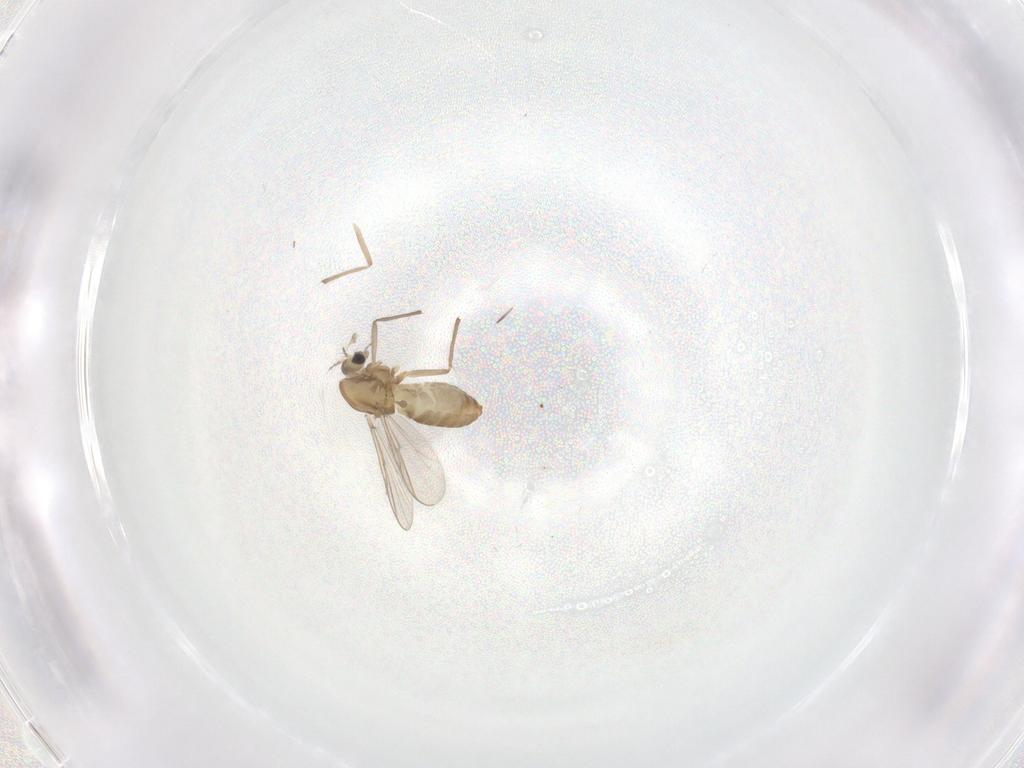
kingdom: Animalia
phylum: Arthropoda
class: Insecta
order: Diptera
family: Chironomidae
